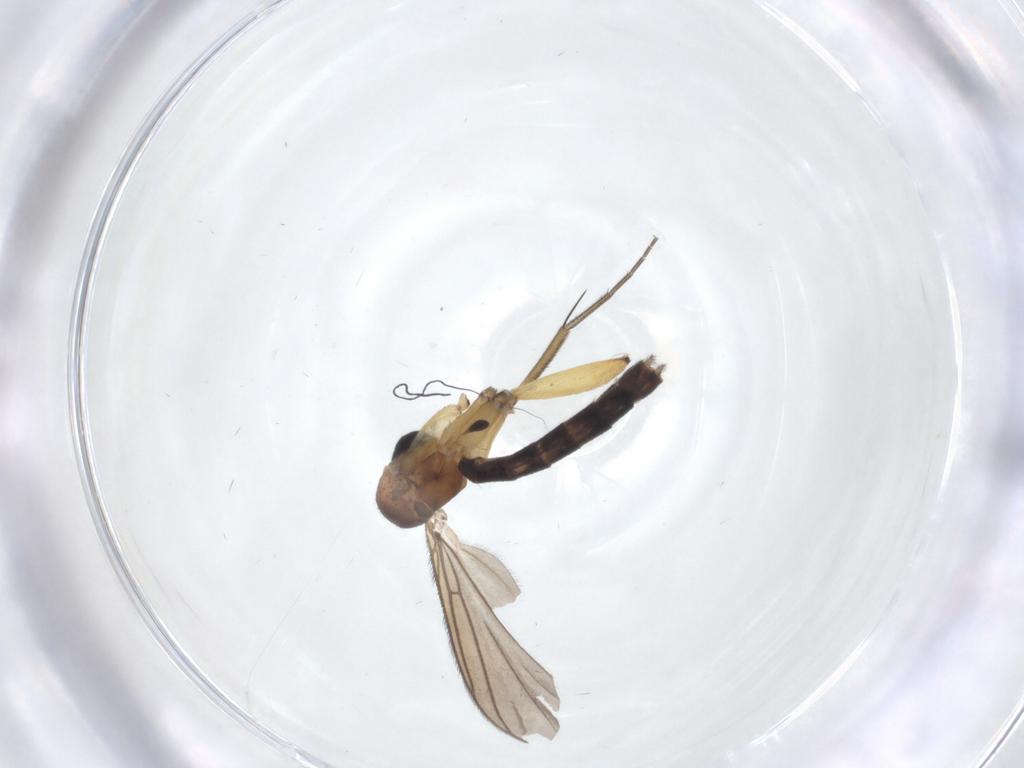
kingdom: Animalia
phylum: Arthropoda
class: Insecta
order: Diptera
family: Phoridae
